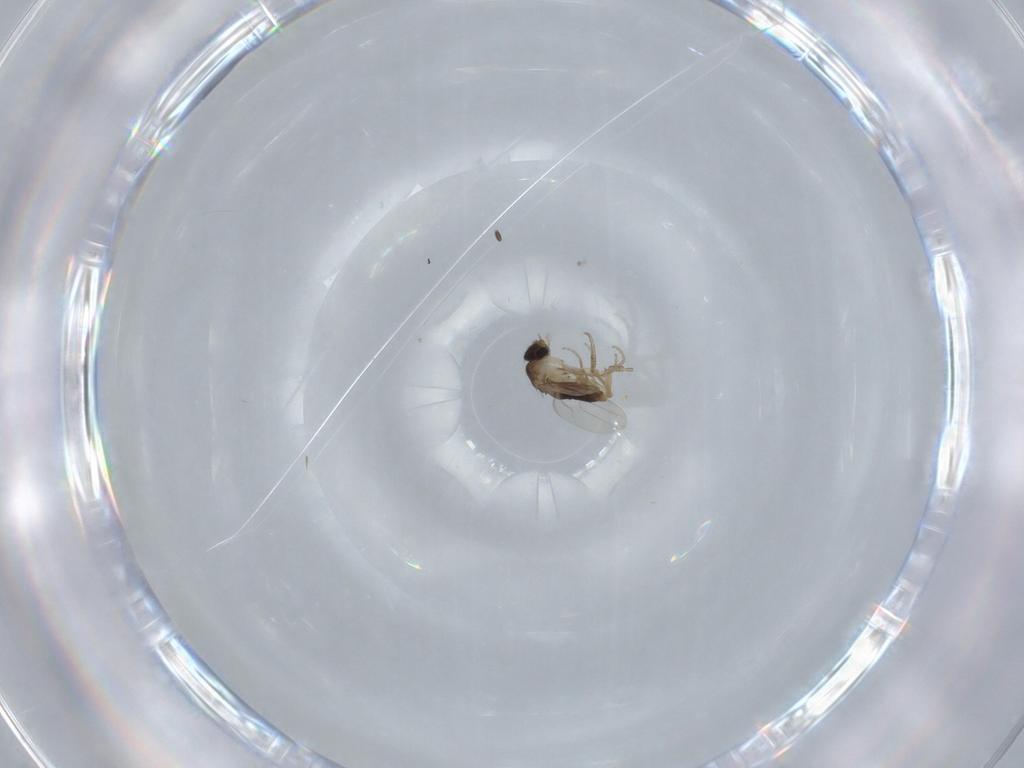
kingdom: Animalia
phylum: Arthropoda
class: Insecta
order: Diptera
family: Phoridae
